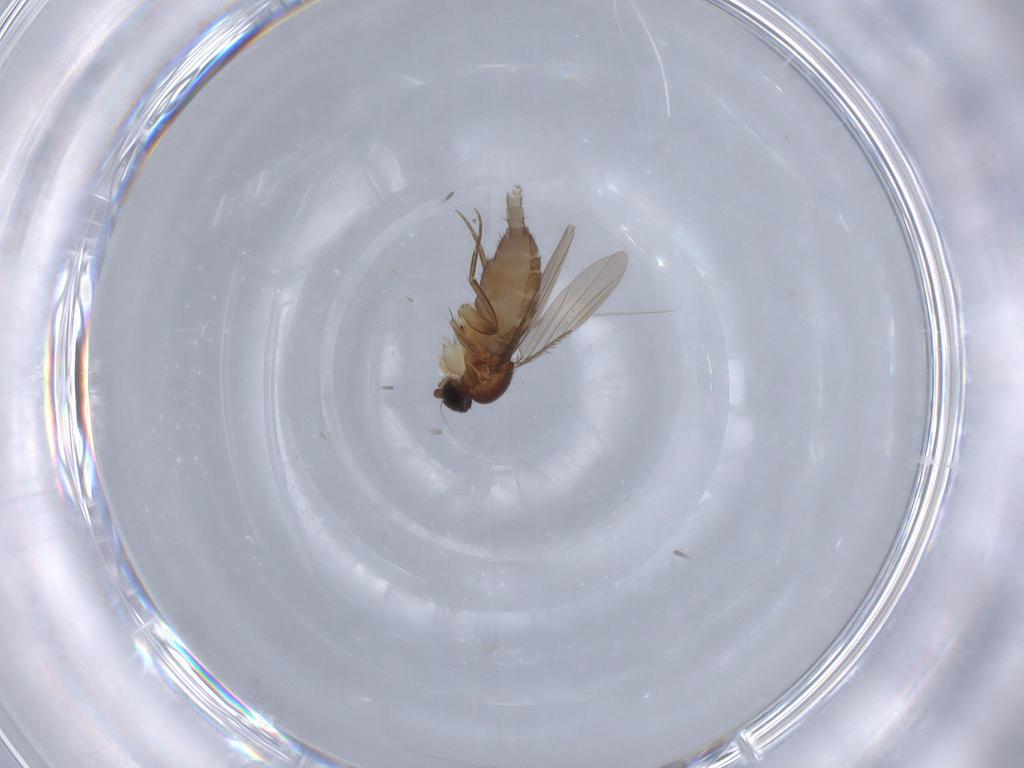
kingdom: Animalia
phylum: Arthropoda
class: Insecta
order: Diptera
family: Phoridae
